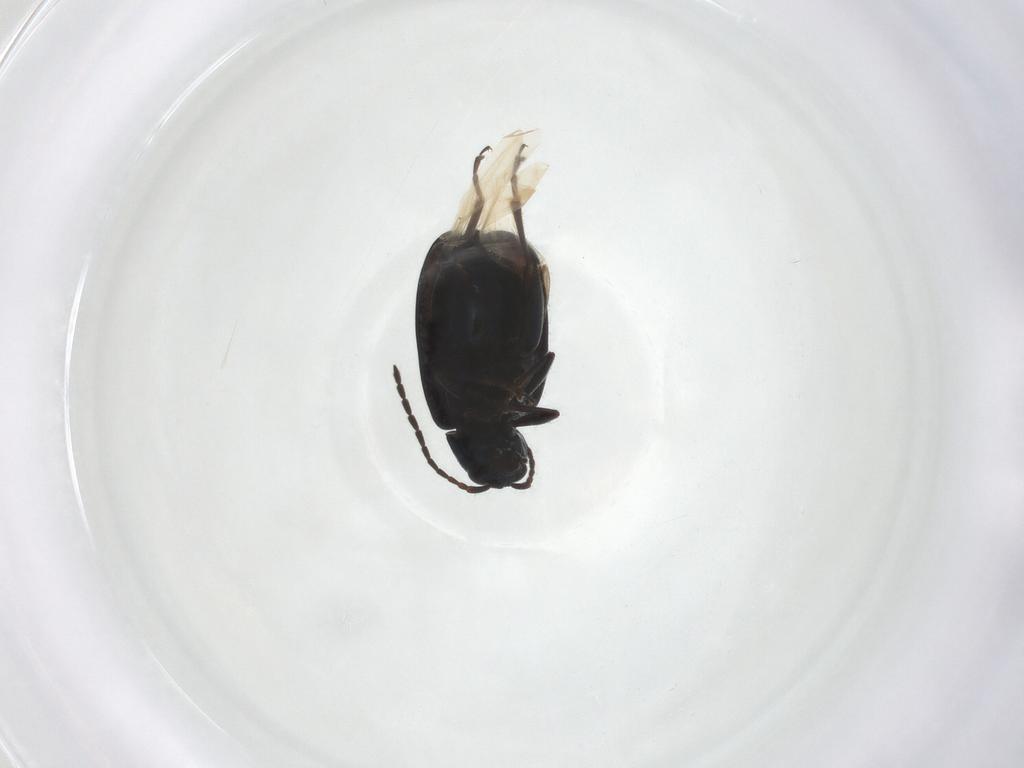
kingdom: Animalia
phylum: Arthropoda
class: Insecta
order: Coleoptera
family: Chrysomelidae
